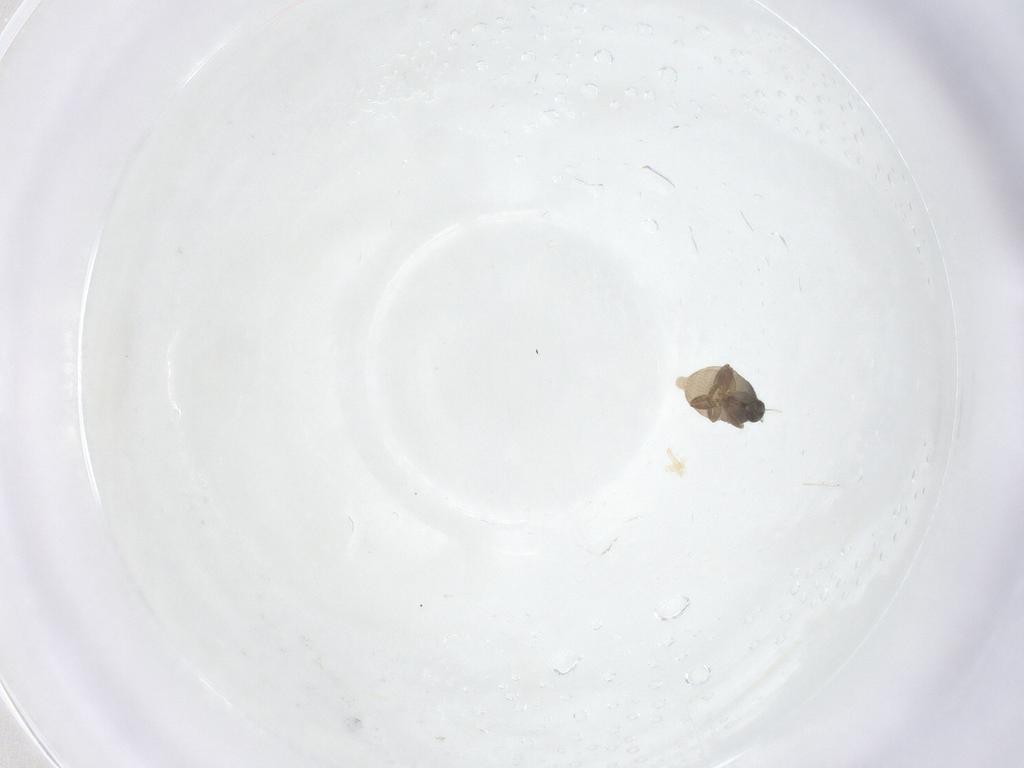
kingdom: Animalia
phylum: Arthropoda
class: Insecta
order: Diptera
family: Phoridae
